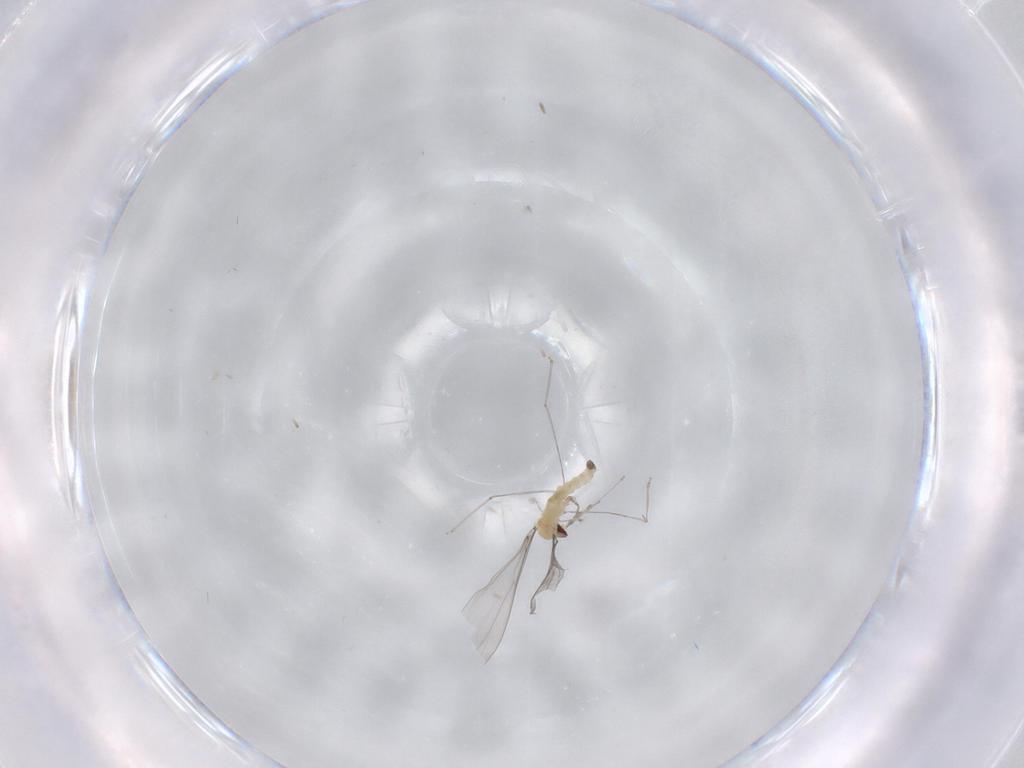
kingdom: Animalia
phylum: Arthropoda
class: Insecta
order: Diptera
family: Cecidomyiidae
